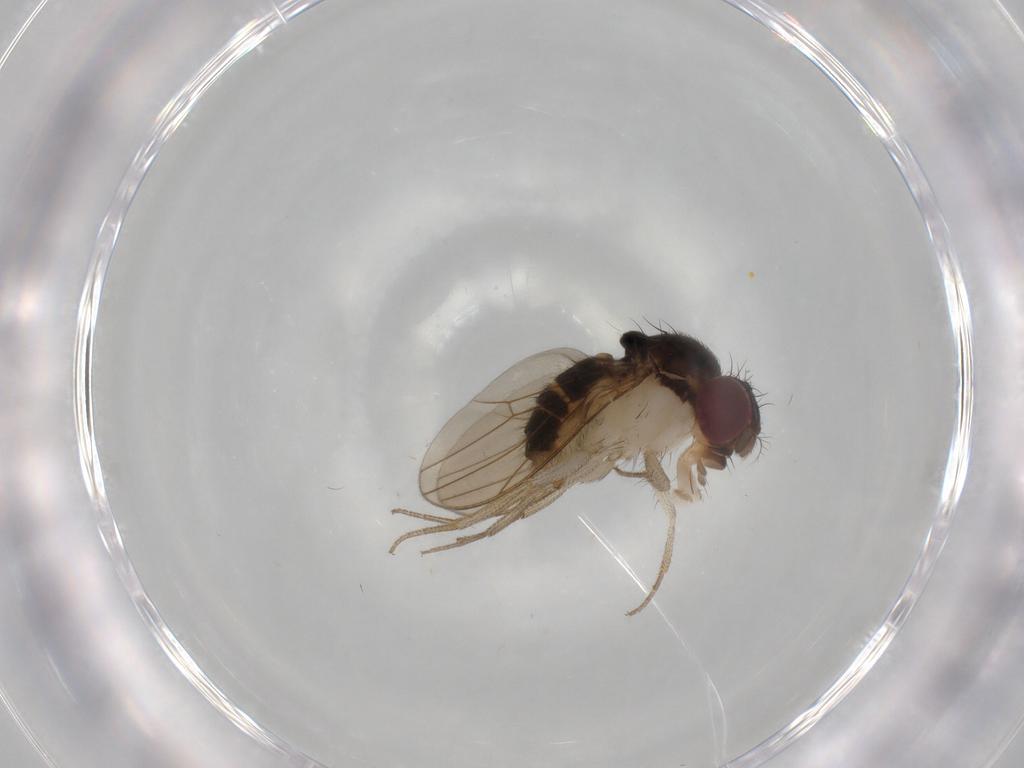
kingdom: Animalia
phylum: Arthropoda
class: Insecta
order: Diptera
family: Drosophilidae
